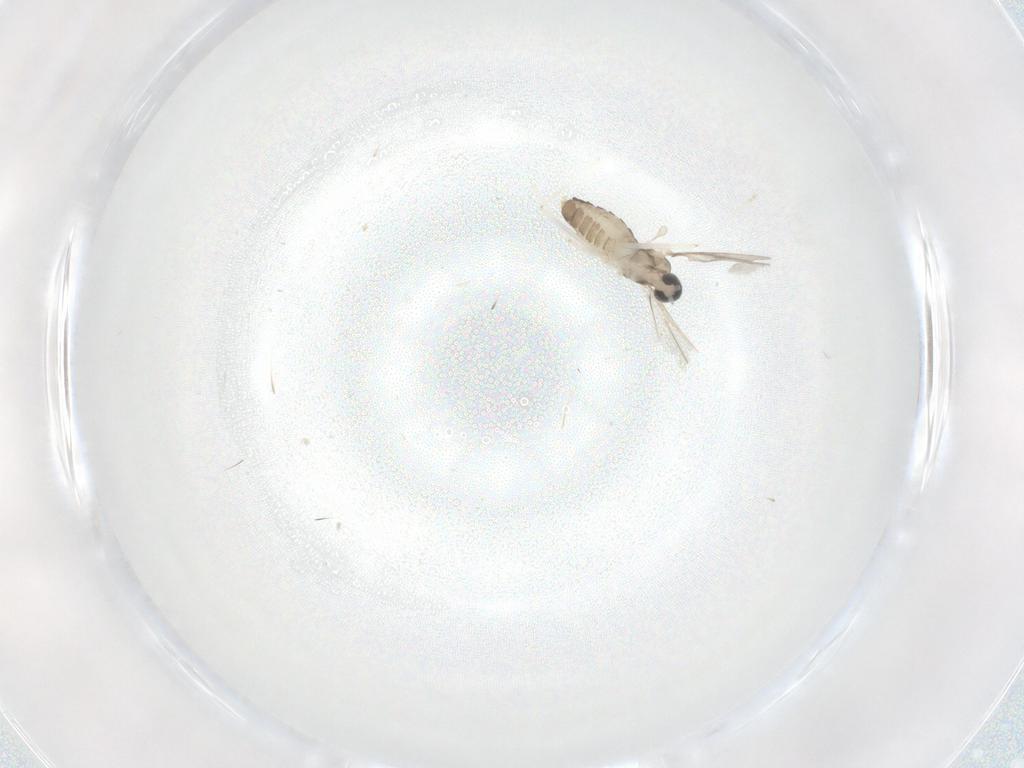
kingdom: Animalia
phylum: Arthropoda
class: Insecta
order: Diptera
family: Cecidomyiidae
